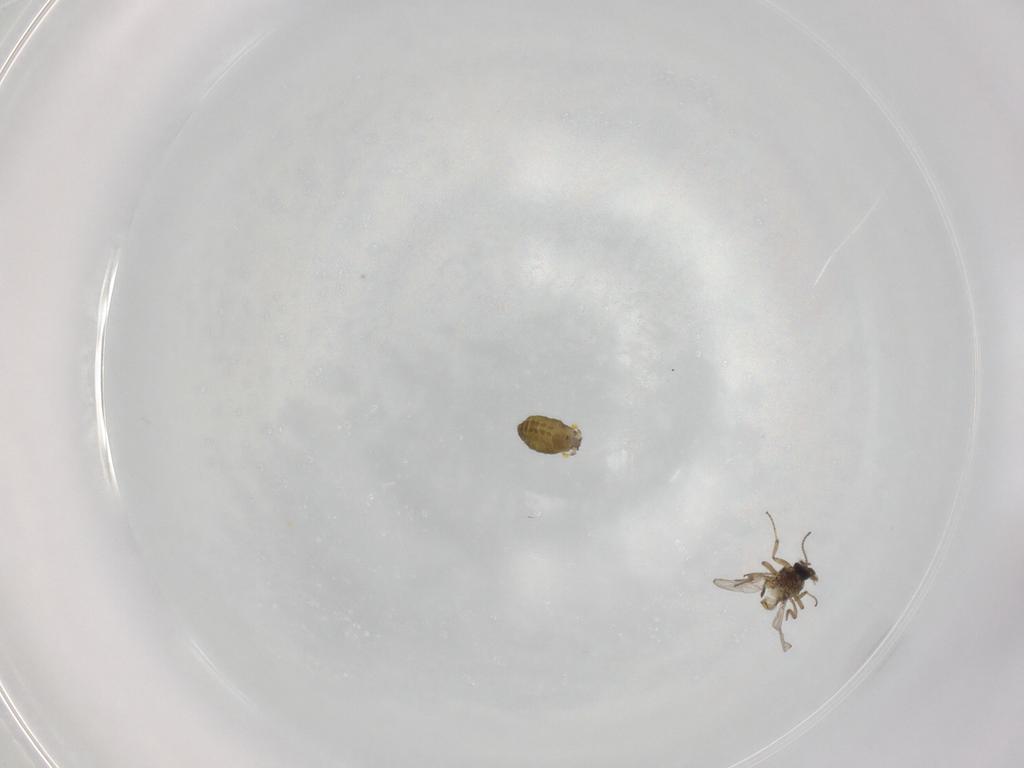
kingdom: Animalia
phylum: Arthropoda
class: Insecta
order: Diptera
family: Ceratopogonidae
